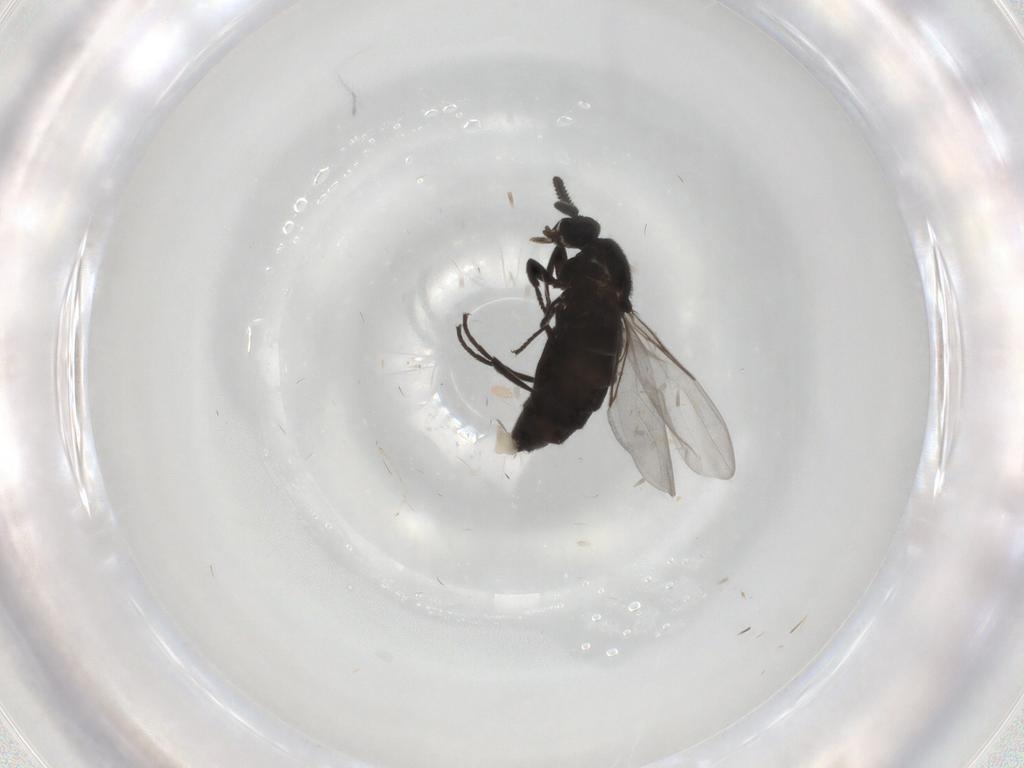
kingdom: Animalia
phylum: Arthropoda
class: Insecta
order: Diptera
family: Scatopsidae
